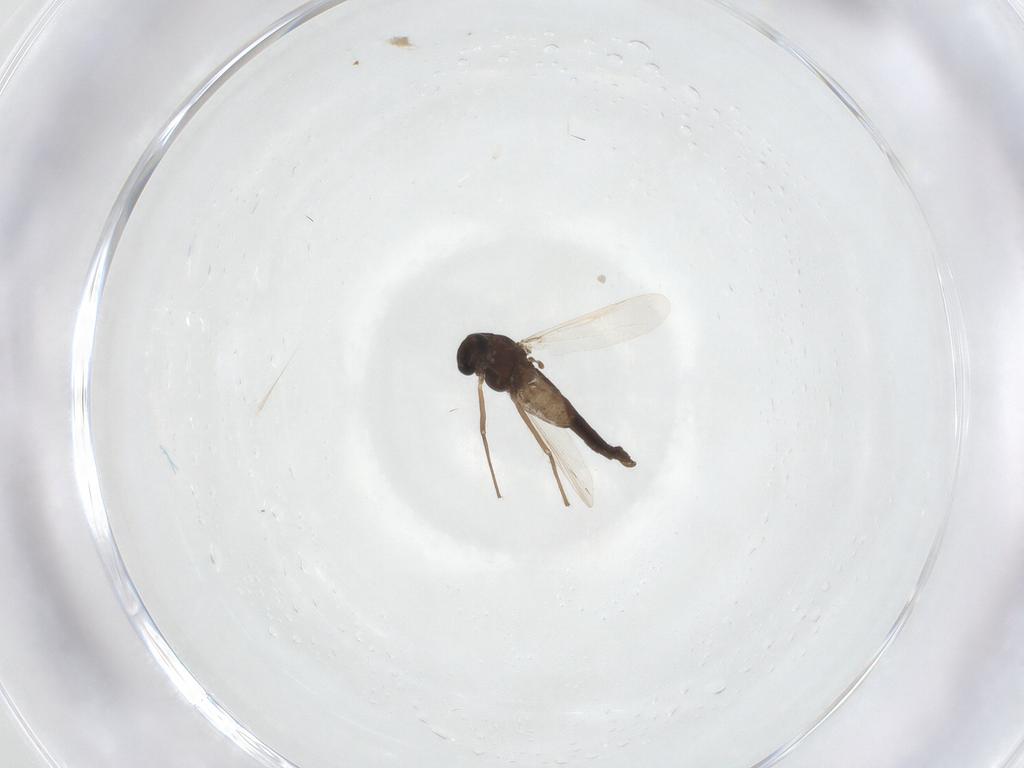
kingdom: Animalia
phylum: Arthropoda
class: Insecta
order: Diptera
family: Chironomidae
